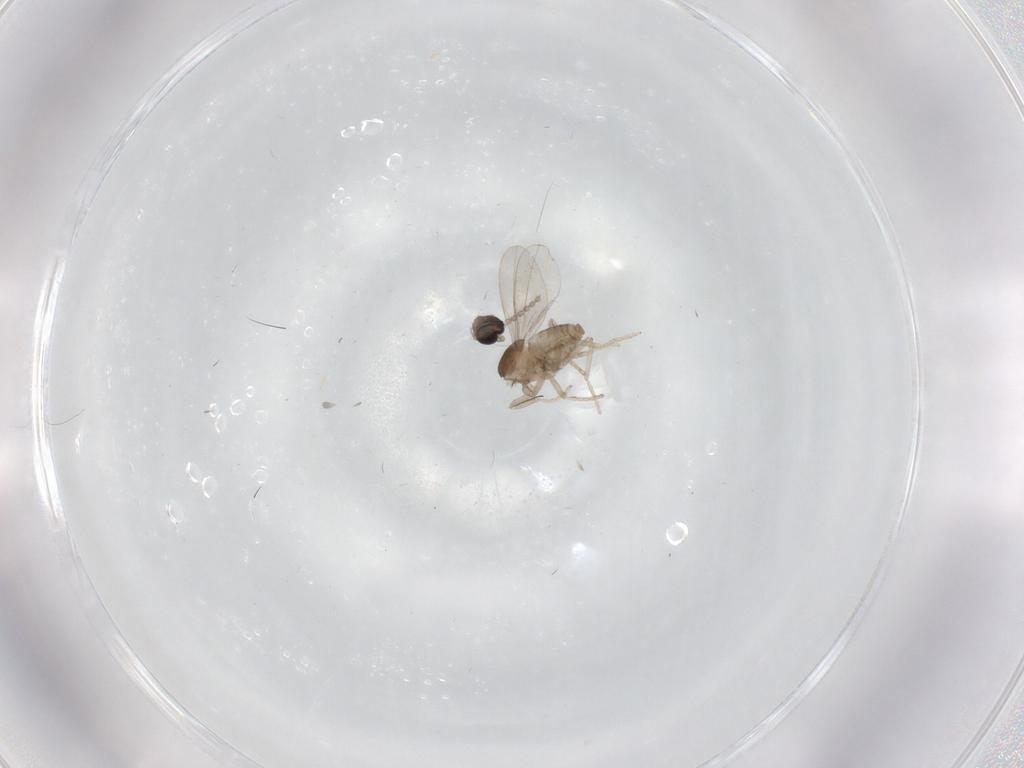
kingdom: Animalia
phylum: Arthropoda
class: Insecta
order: Diptera
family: Cecidomyiidae
